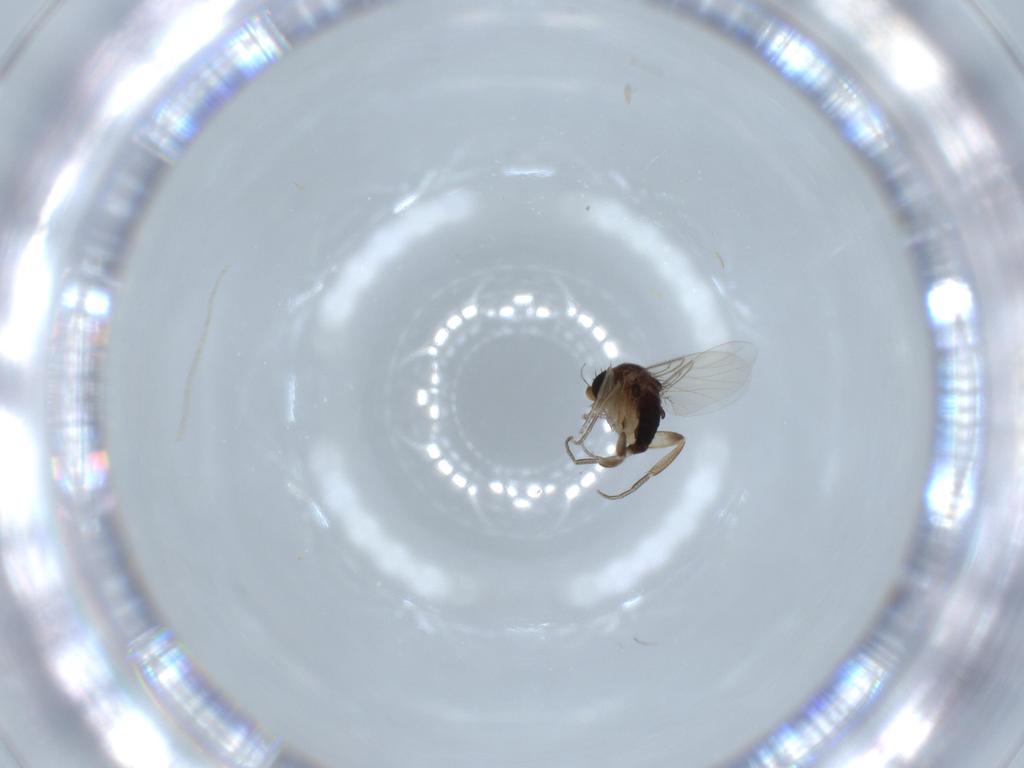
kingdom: Animalia
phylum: Arthropoda
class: Insecta
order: Diptera
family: Phoridae
